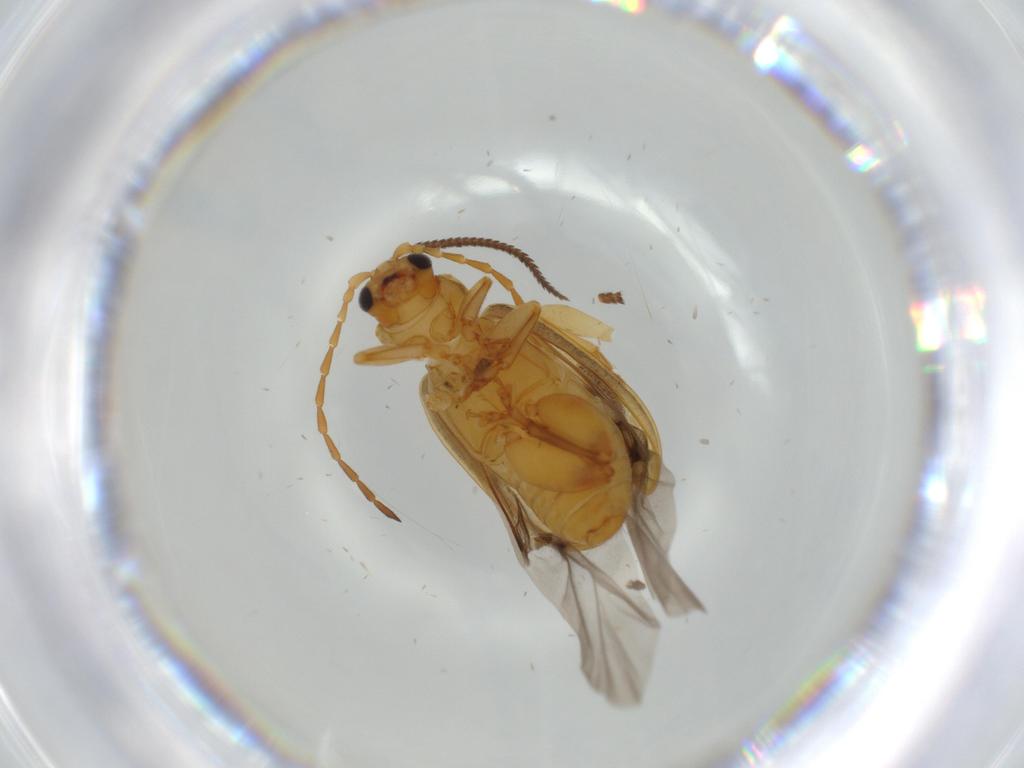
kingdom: Animalia
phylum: Arthropoda
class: Insecta
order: Coleoptera
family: Chrysomelidae
